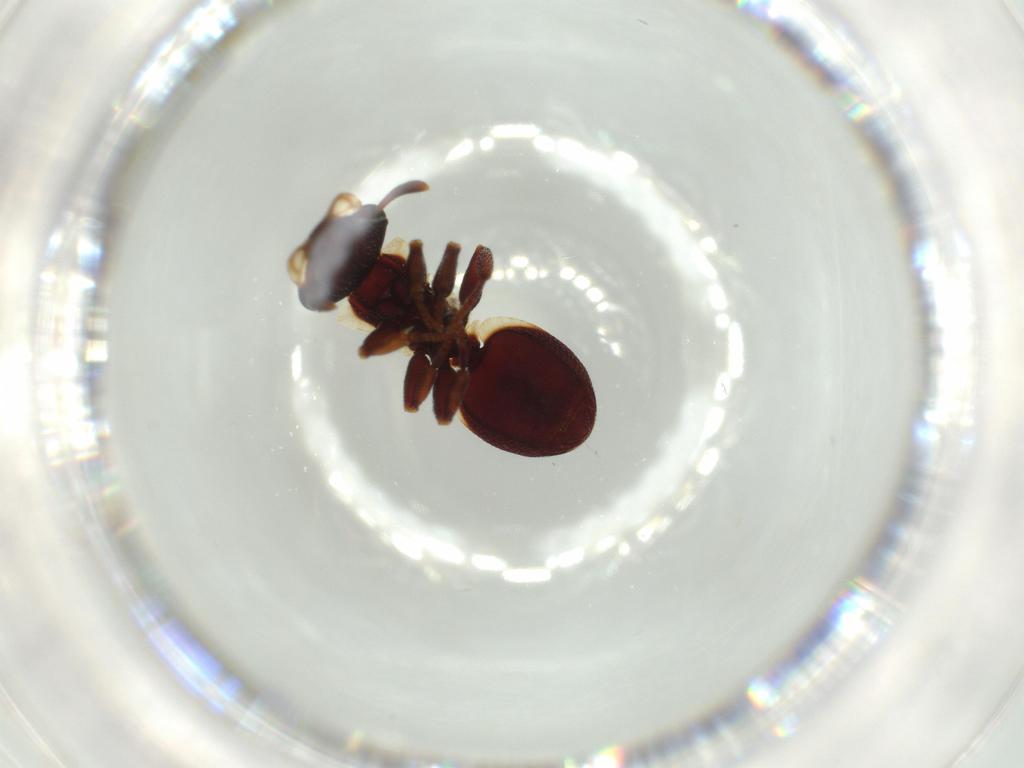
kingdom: Animalia
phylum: Arthropoda
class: Insecta
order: Hymenoptera
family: Formicidae
